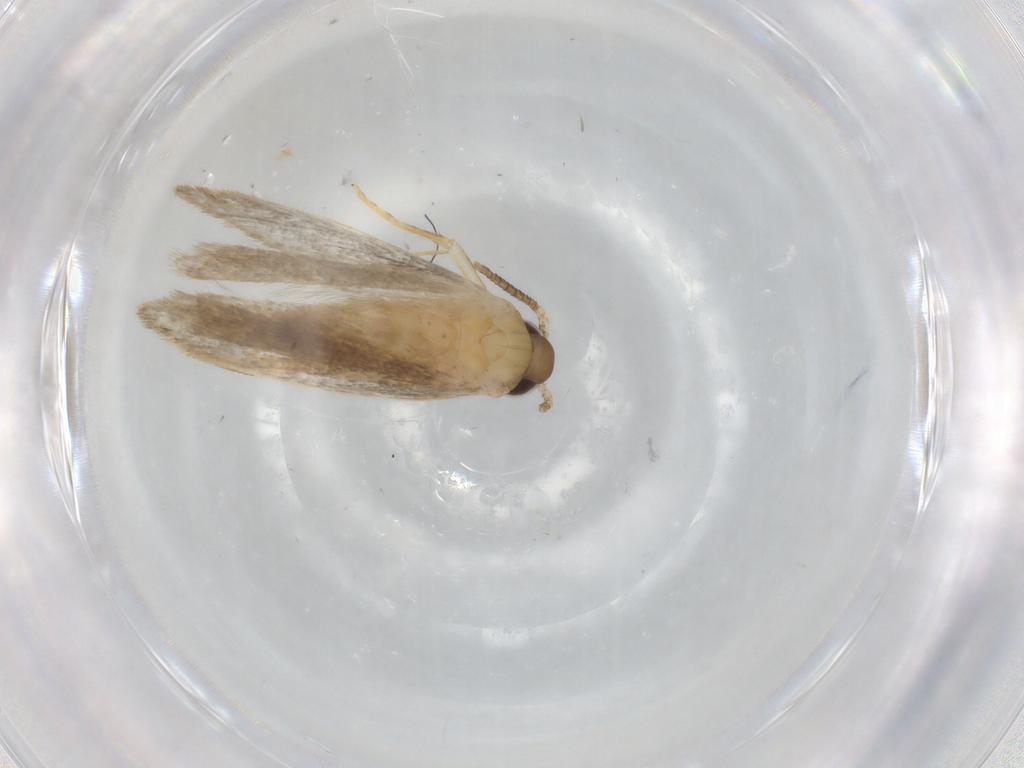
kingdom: Animalia
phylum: Arthropoda
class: Insecta
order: Lepidoptera
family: Autostichidae
